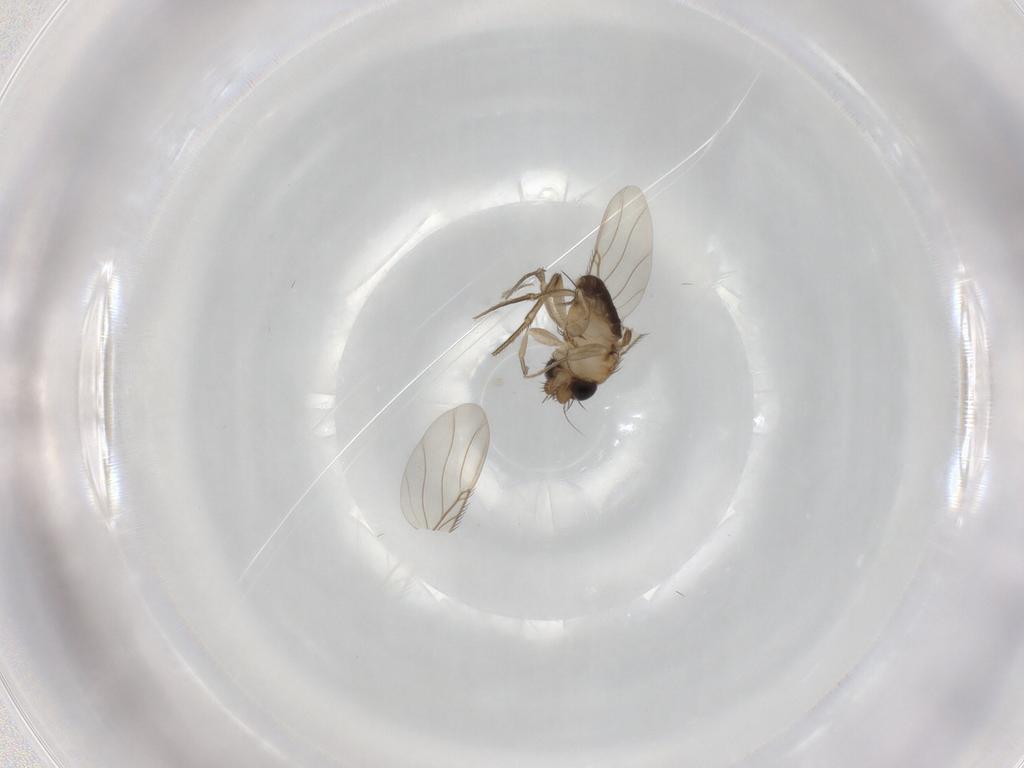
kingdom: Animalia
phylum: Arthropoda
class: Insecta
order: Diptera
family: Phoridae
